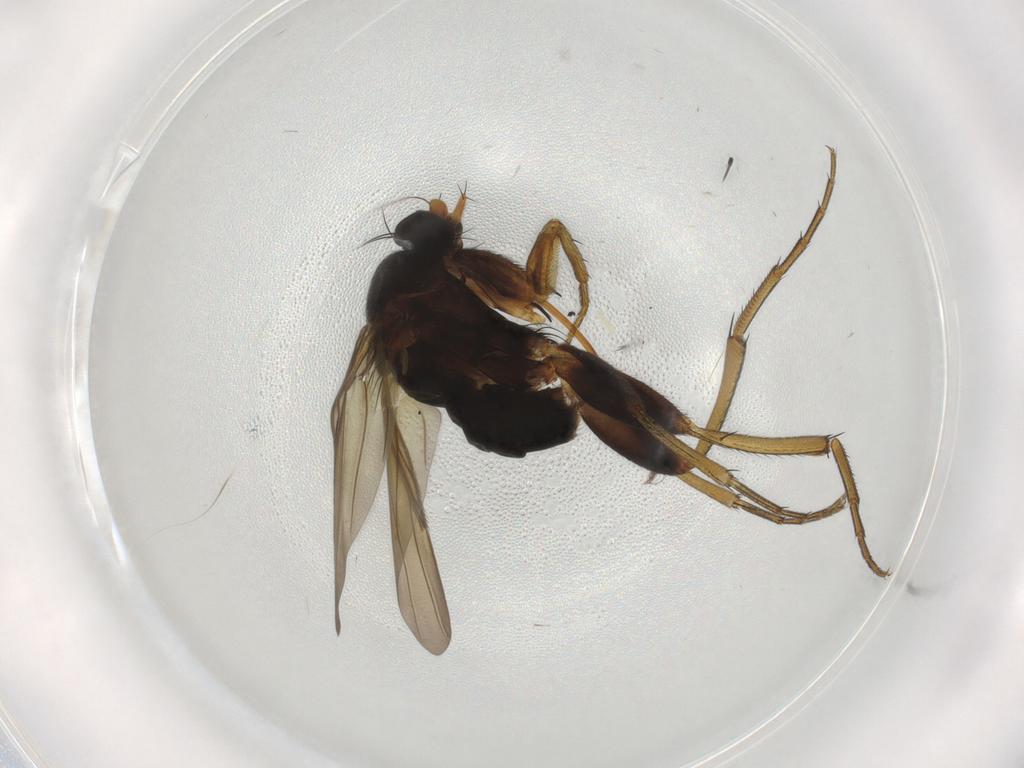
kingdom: Animalia
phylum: Arthropoda
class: Insecta
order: Diptera
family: Phoridae
